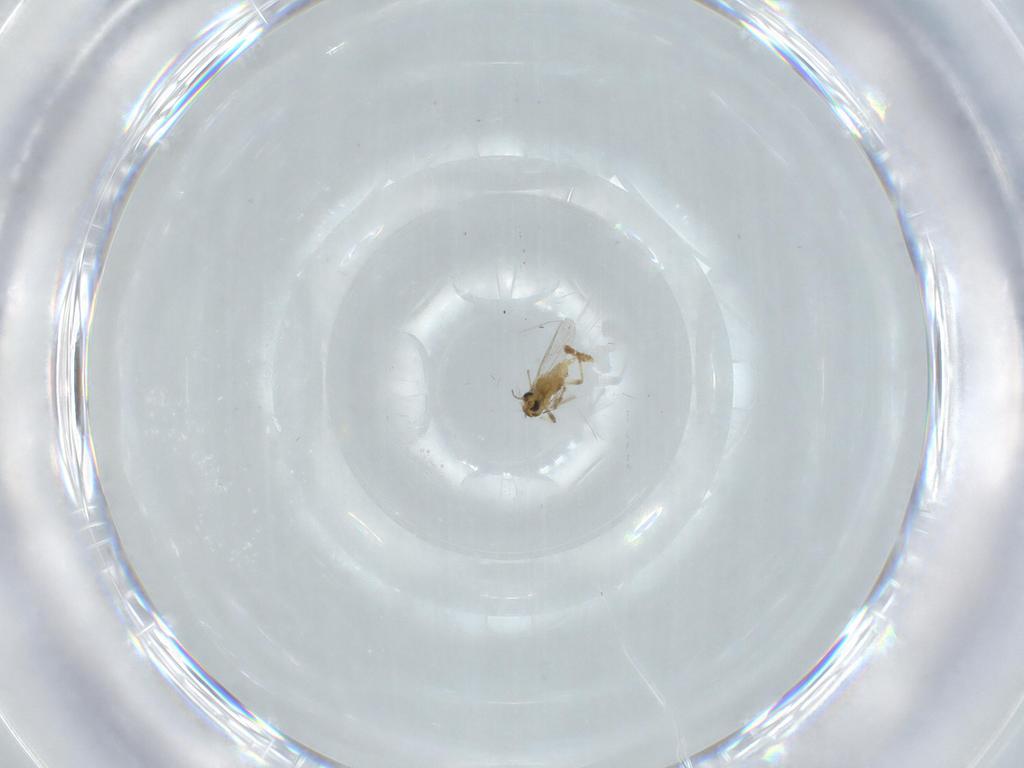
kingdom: Animalia
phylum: Arthropoda
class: Insecta
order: Diptera
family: Chironomidae
